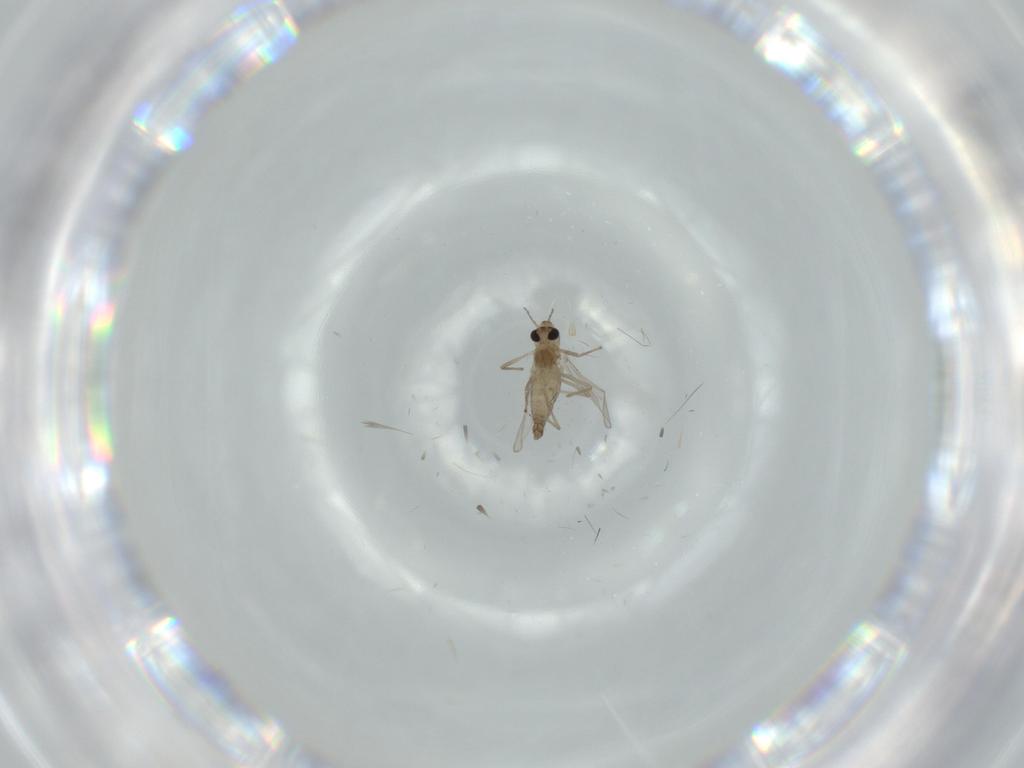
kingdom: Animalia
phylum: Arthropoda
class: Insecta
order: Diptera
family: Chironomidae
